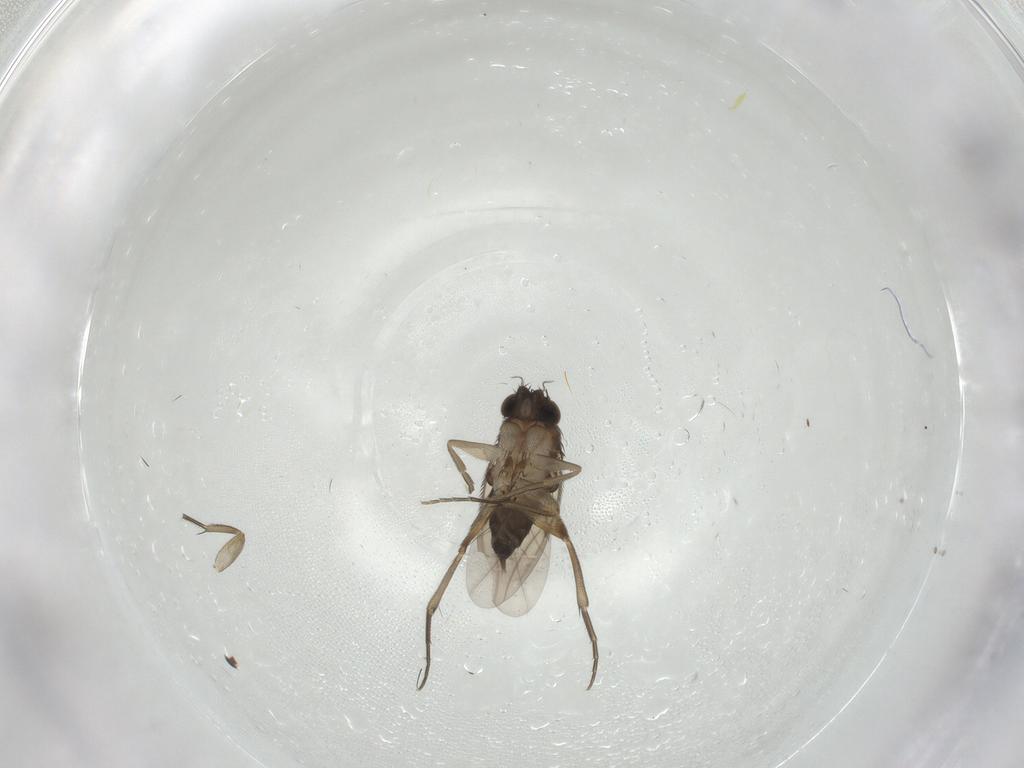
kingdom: Animalia
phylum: Arthropoda
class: Insecta
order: Diptera
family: Phoridae
